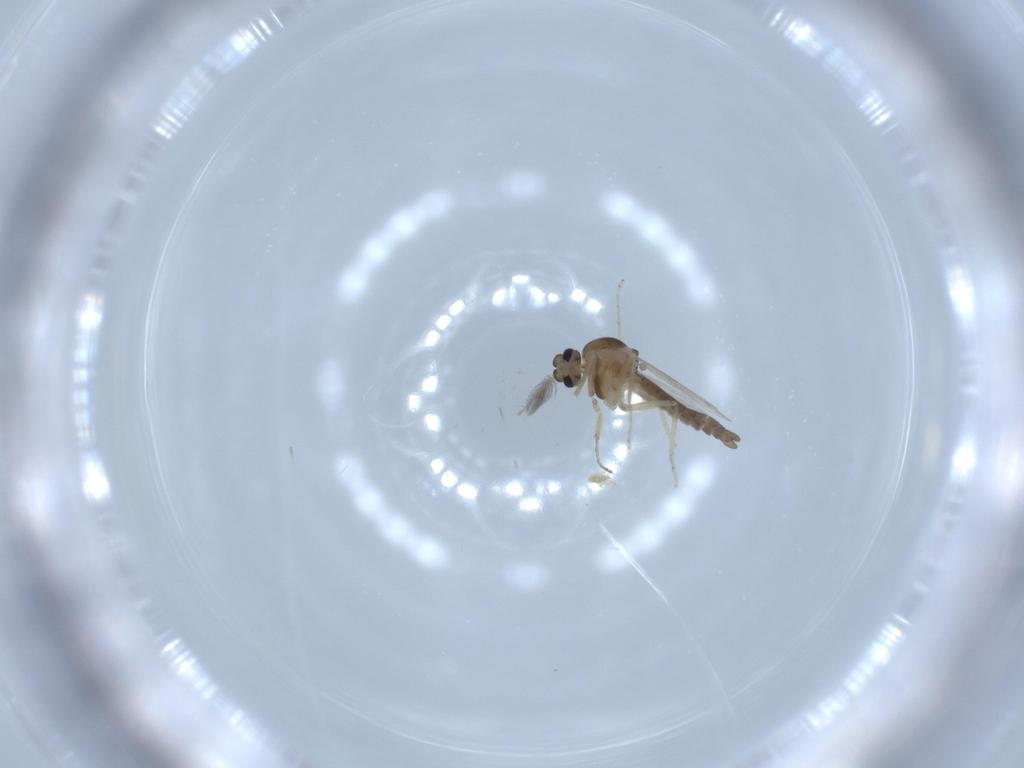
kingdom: Animalia
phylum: Arthropoda
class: Insecta
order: Diptera
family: Ceratopogonidae
